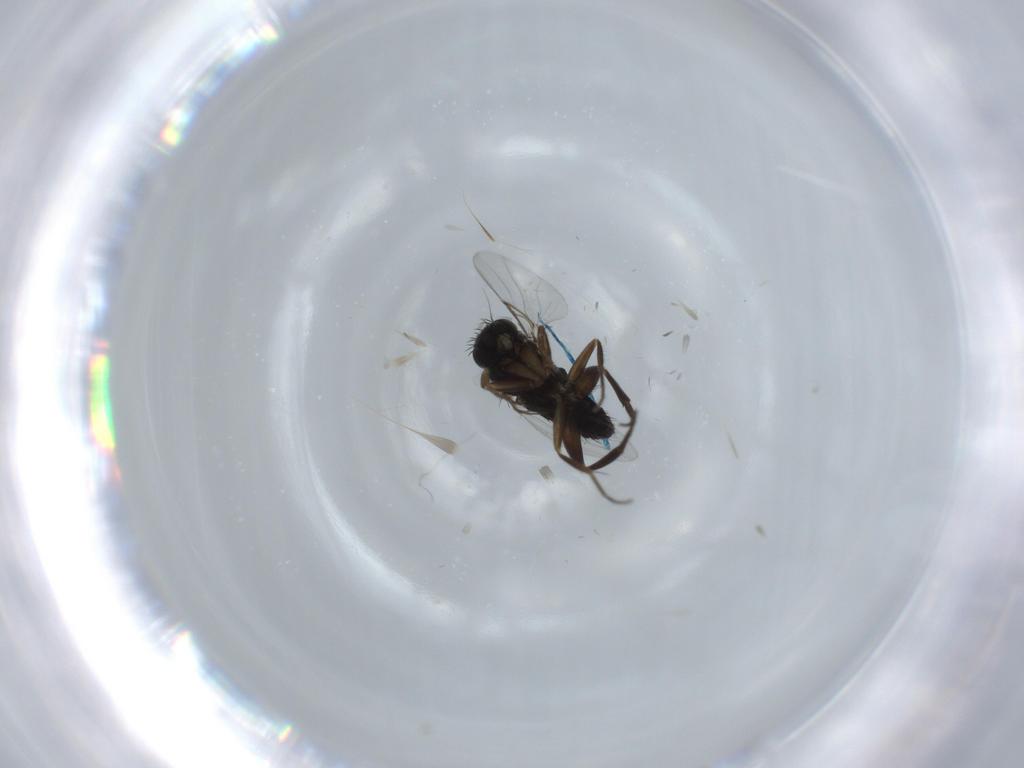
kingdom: Animalia
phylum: Arthropoda
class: Insecta
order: Diptera
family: Phoridae
